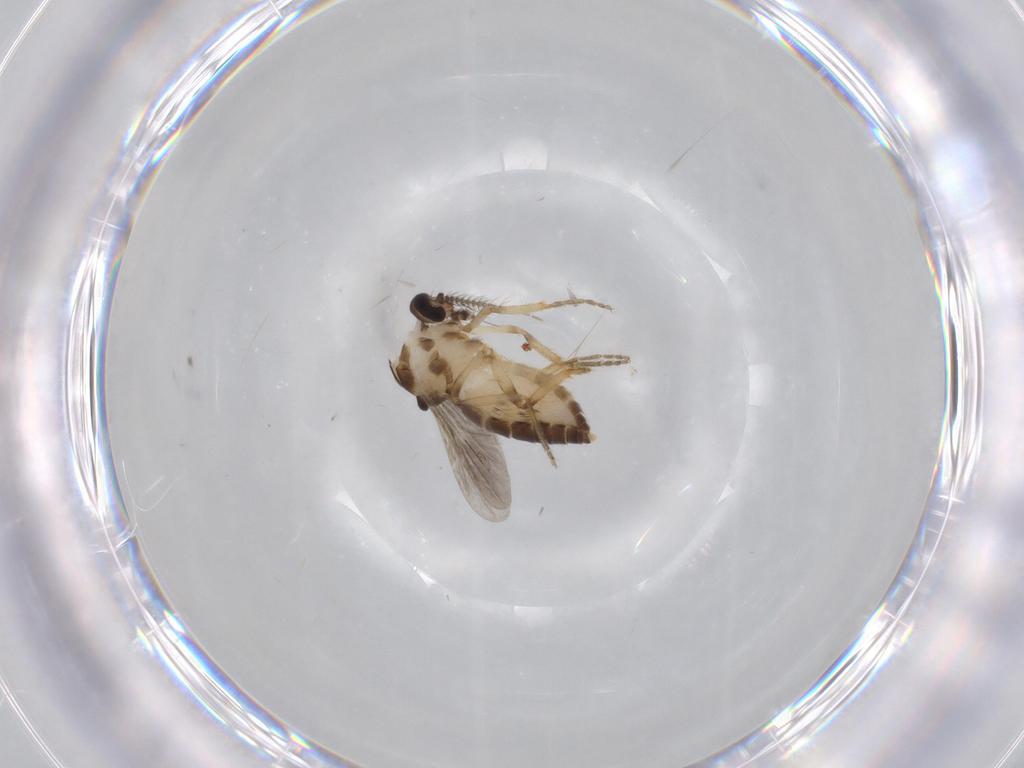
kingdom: Animalia
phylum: Arthropoda
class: Insecta
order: Diptera
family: Ceratopogonidae
